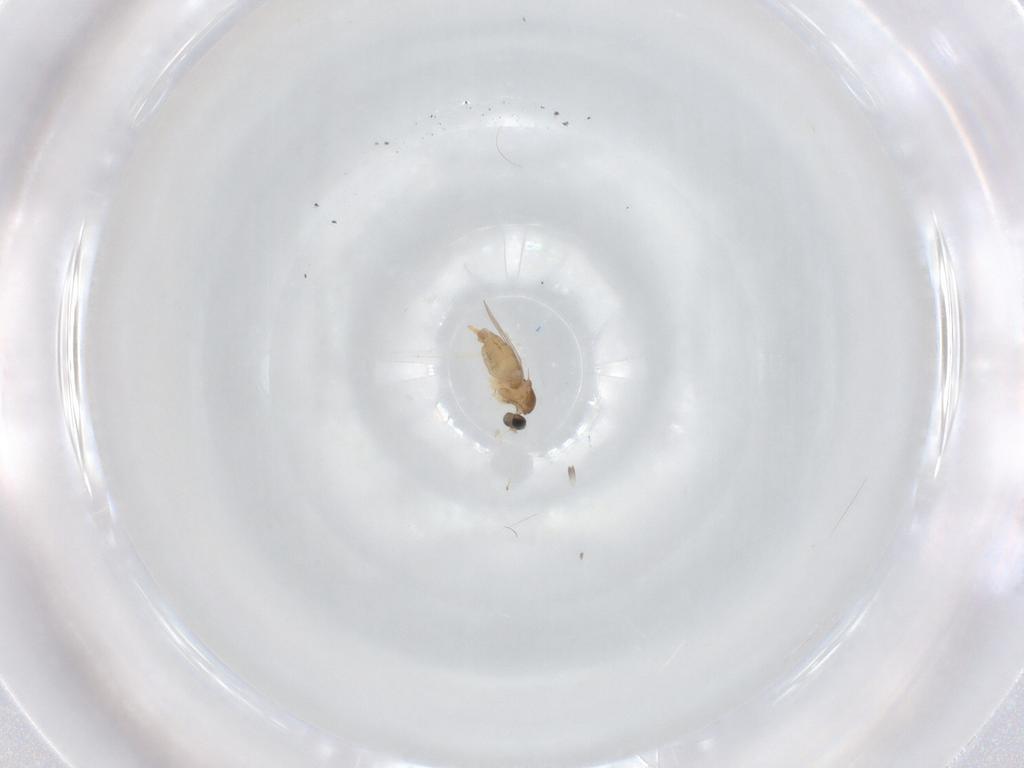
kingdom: Animalia
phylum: Arthropoda
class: Insecta
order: Diptera
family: Cecidomyiidae
